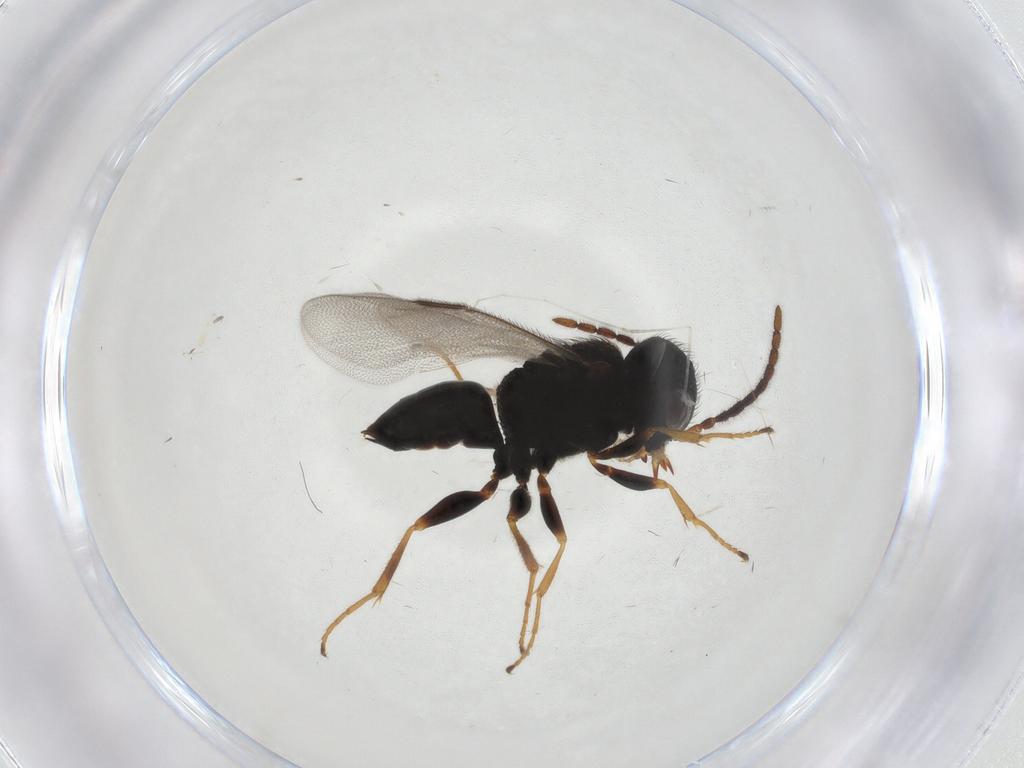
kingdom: Animalia
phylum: Arthropoda
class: Insecta
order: Hymenoptera
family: Dryinidae
